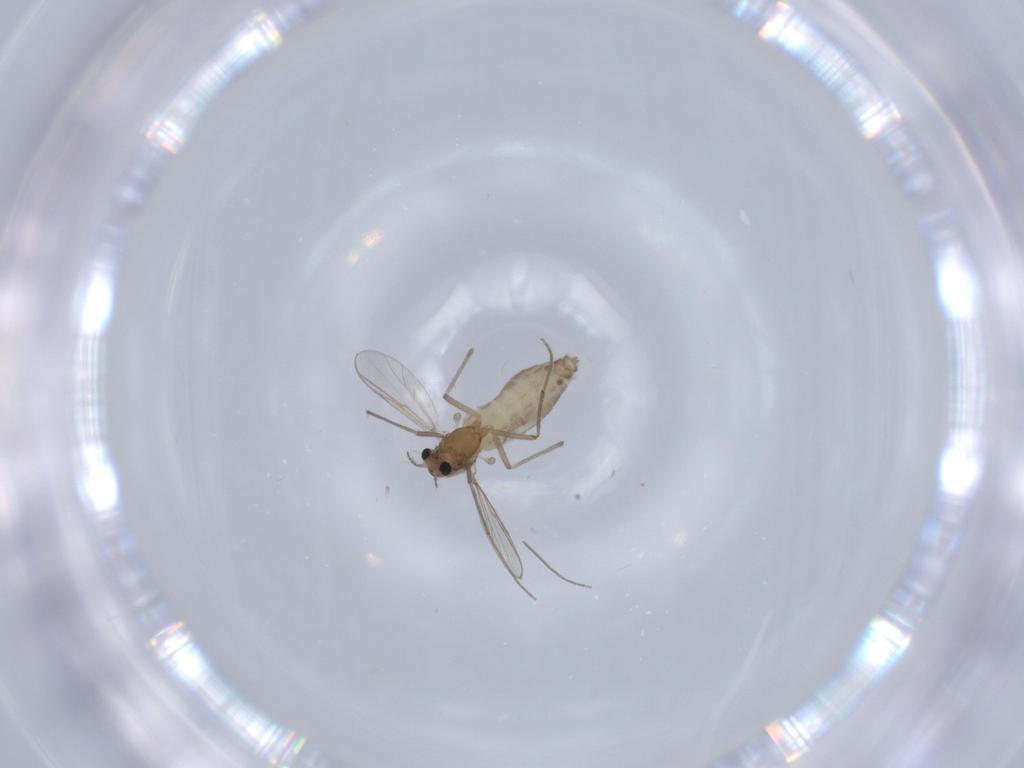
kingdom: Animalia
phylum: Arthropoda
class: Insecta
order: Diptera
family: Chironomidae
